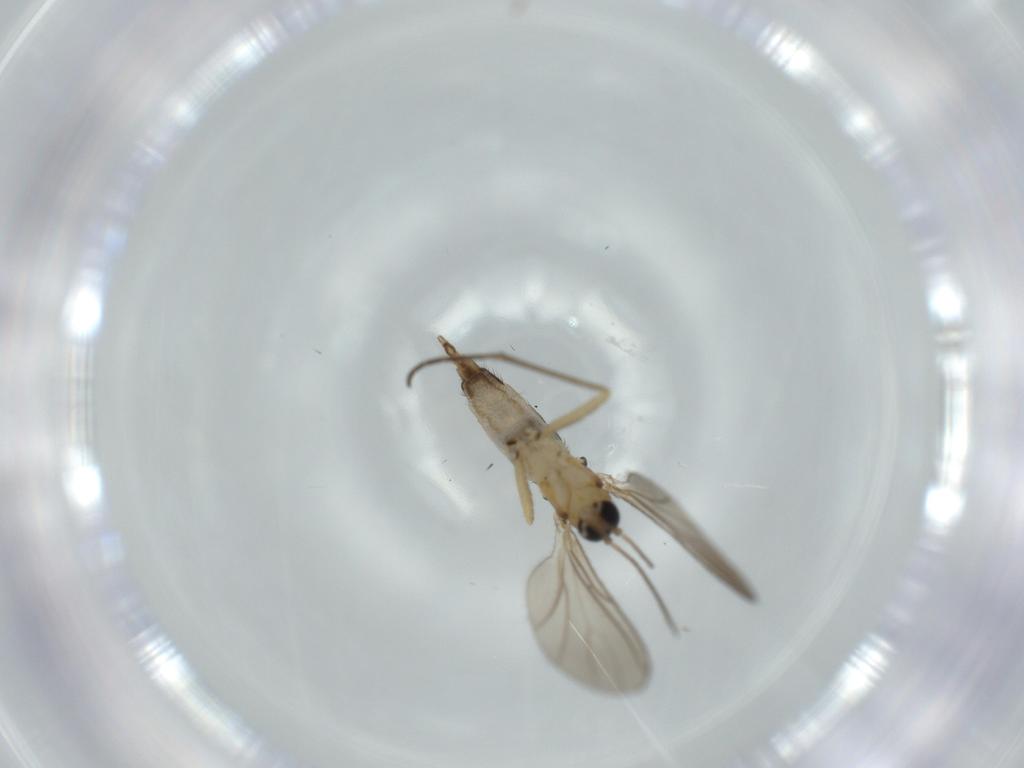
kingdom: Animalia
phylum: Arthropoda
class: Insecta
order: Diptera
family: Sciaridae
